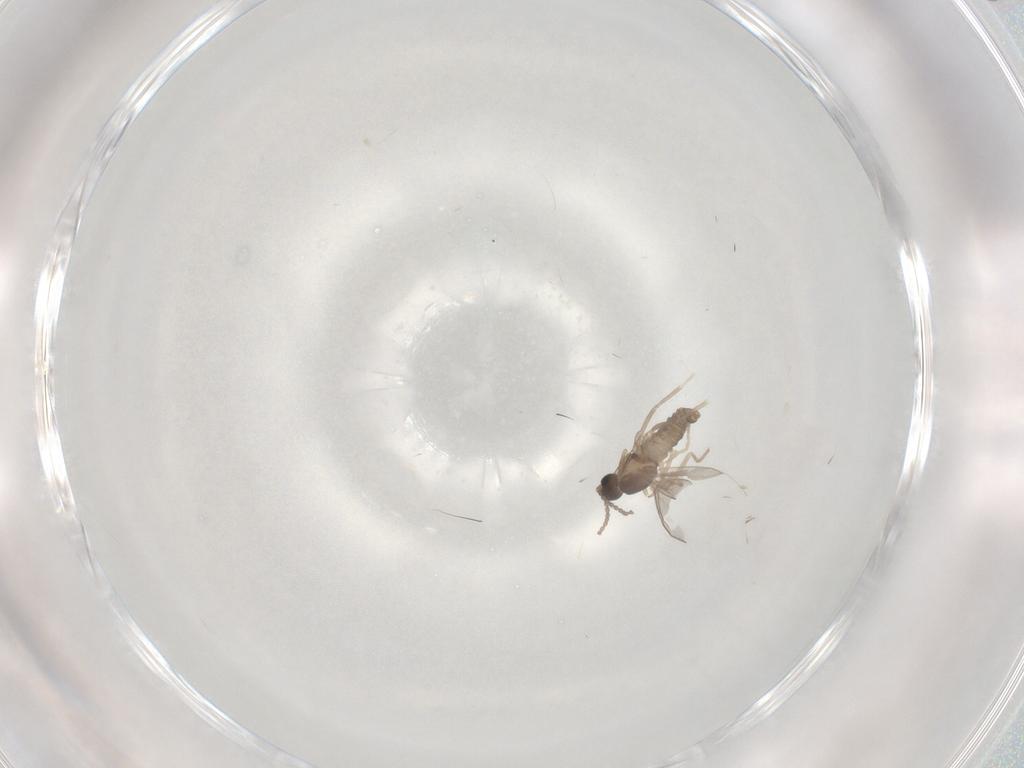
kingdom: Animalia
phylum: Arthropoda
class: Insecta
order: Diptera
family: Cecidomyiidae
